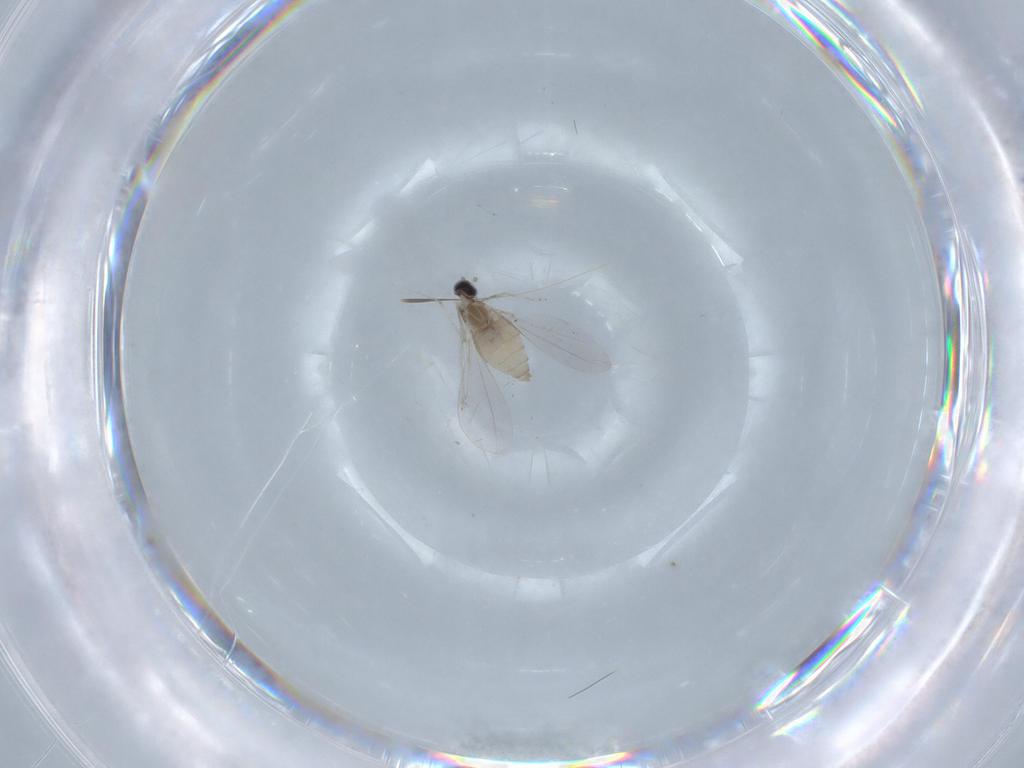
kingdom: Animalia
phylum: Arthropoda
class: Insecta
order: Diptera
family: Cecidomyiidae
